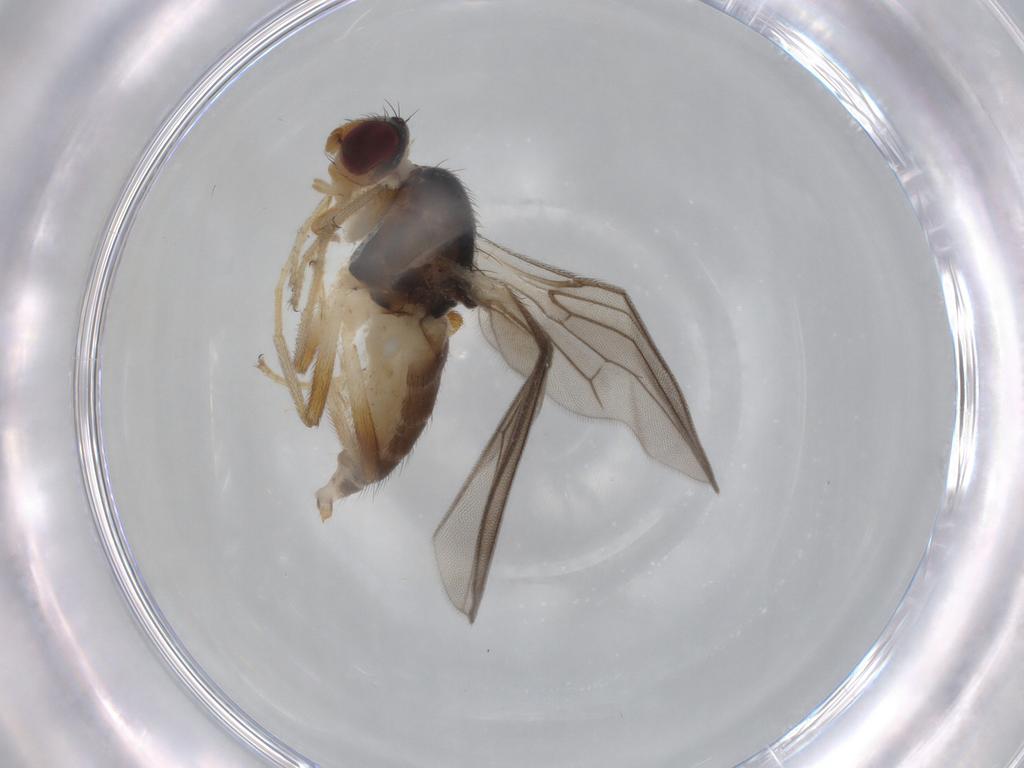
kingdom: Animalia
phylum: Arthropoda
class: Insecta
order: Diptera
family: Chloropidae
